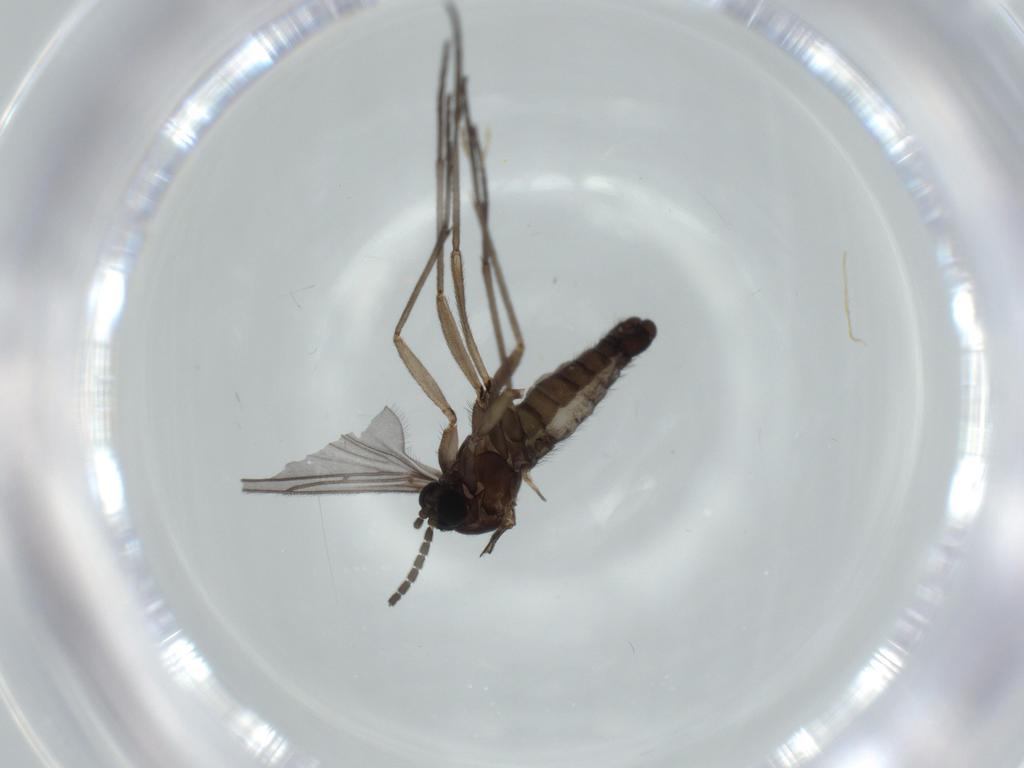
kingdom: Animalia
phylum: Arthropoda
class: Insecta
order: Diptera
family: Sciaridae
